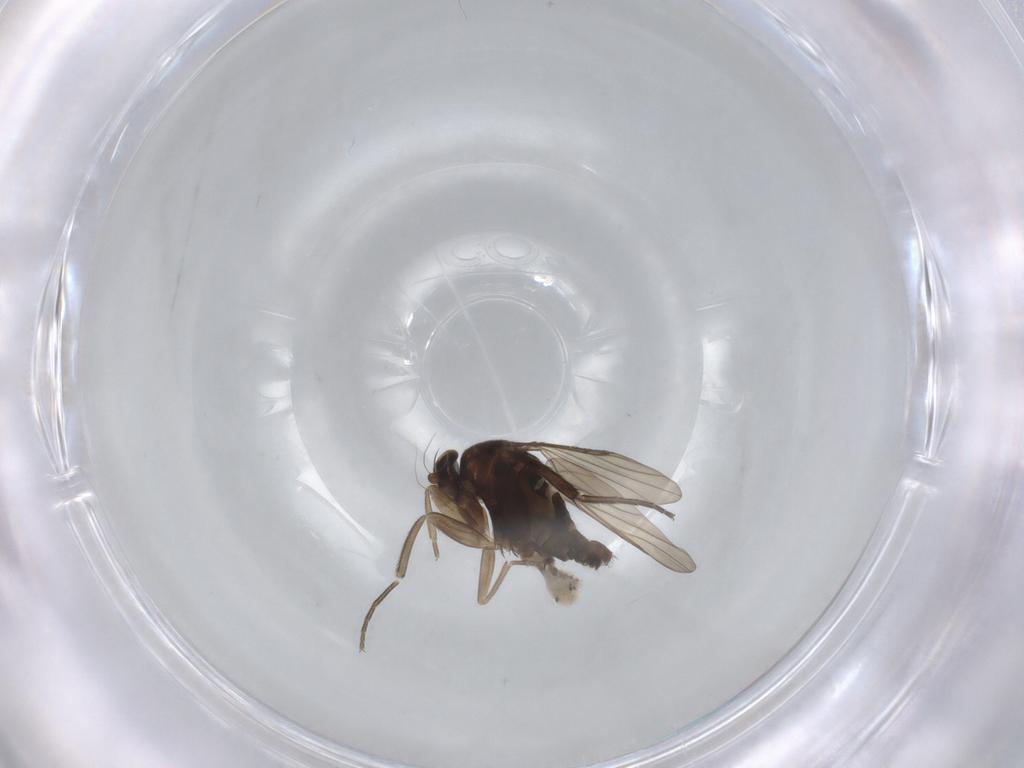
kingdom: Animalia
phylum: Arthropoda
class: Insecta
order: Diptera
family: Phoridae
